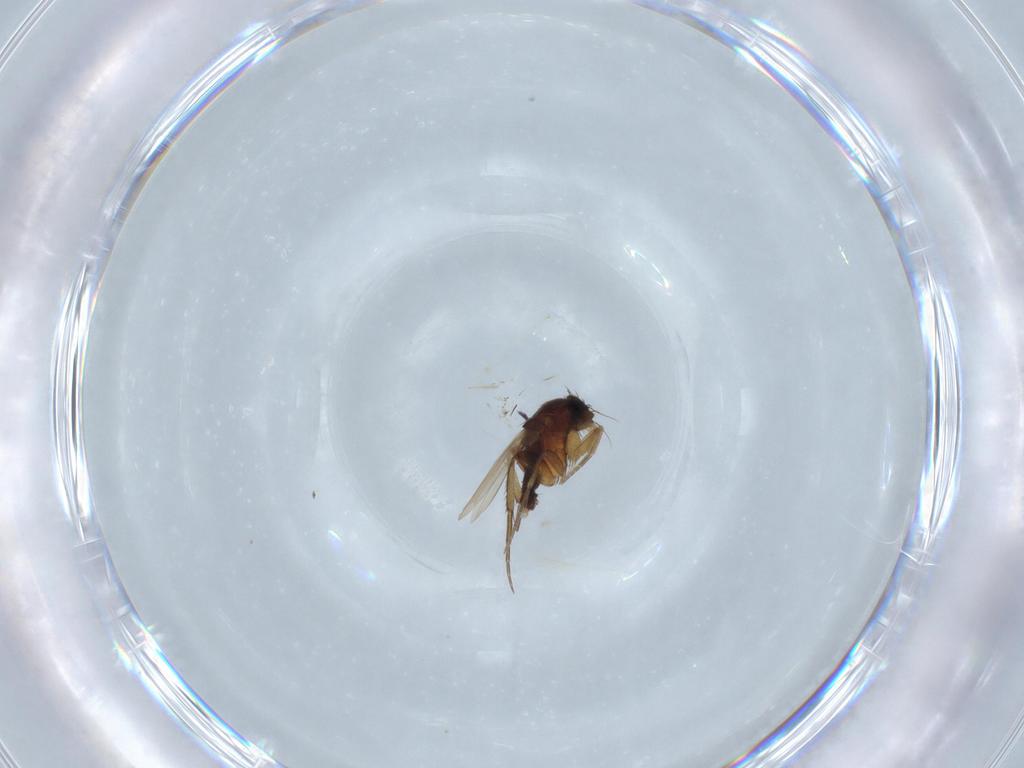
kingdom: Animalia
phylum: Arthropoda
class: Insecta
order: Diptera
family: Phoridae
